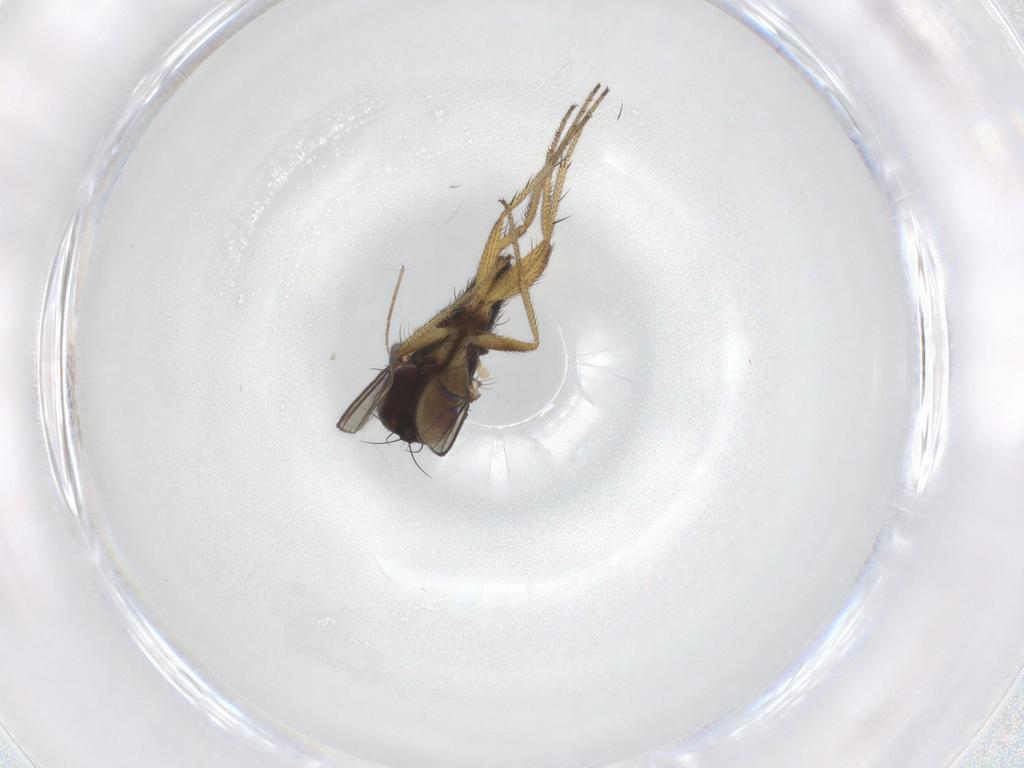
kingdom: Animalia
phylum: Arthropoda
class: Insecta
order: Diptera
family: Chironomidae
